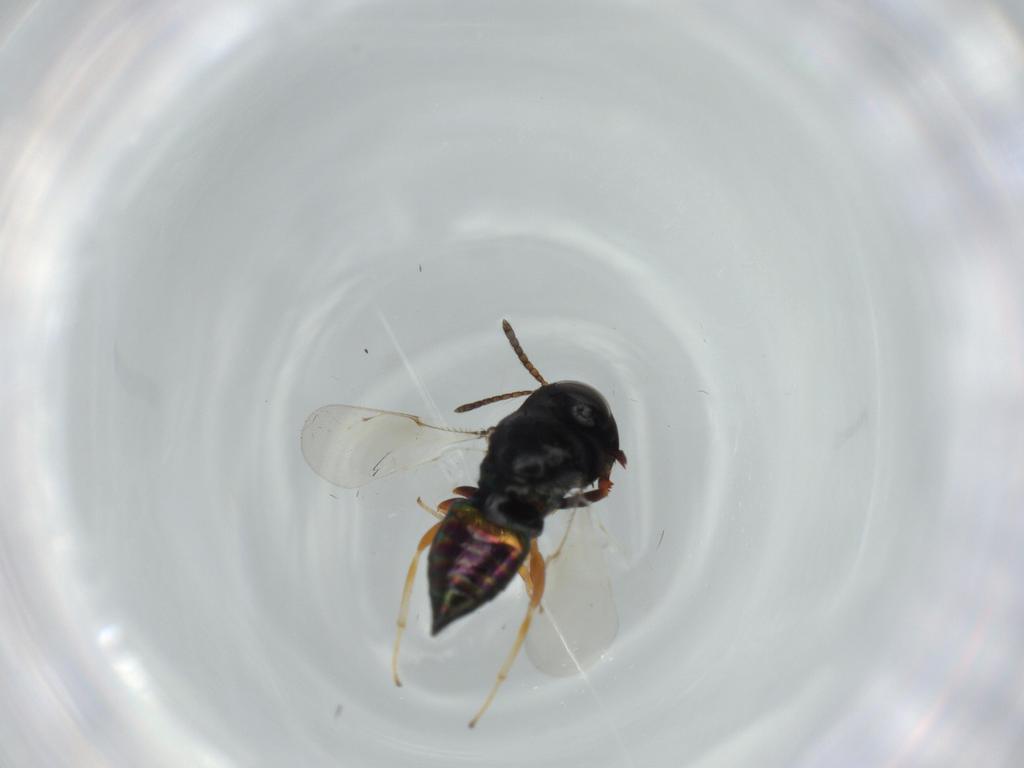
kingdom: Animalia
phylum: Arthropoda
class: Insecta
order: Hymenoptera
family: Pteromalidae
